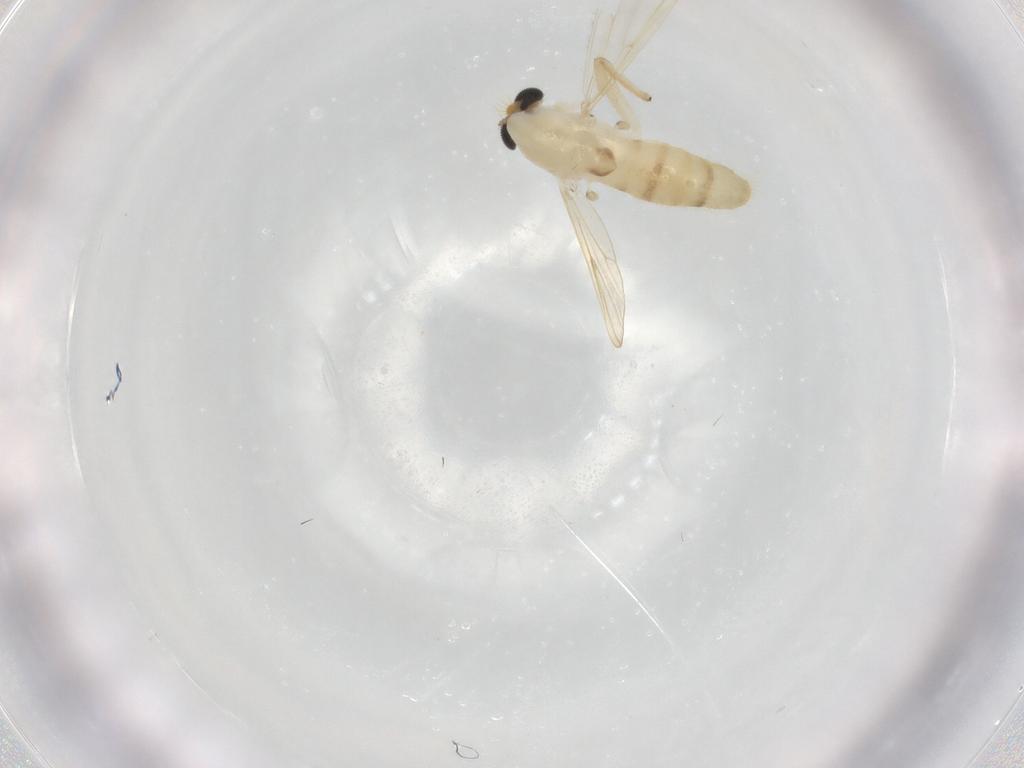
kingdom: Animalia
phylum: Arthropoda
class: Insecta
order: Diptera
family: Chironomidae
